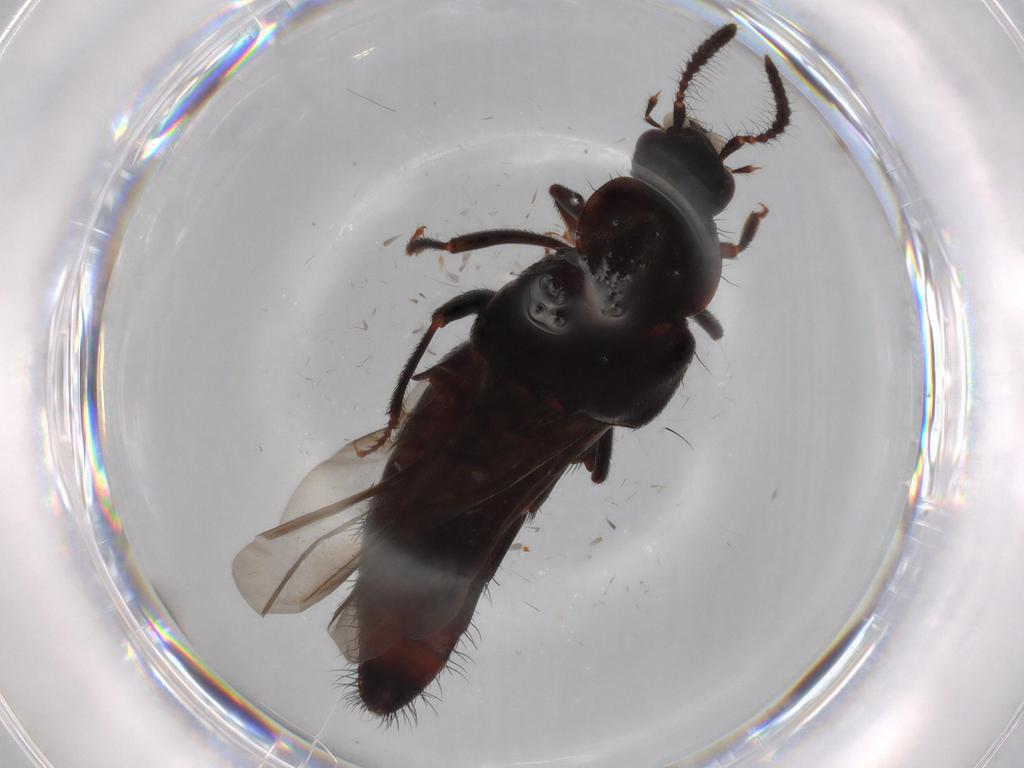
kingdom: Animalia
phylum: Arthropoda
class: Insecta
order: Coleoptera
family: Staphylinidae
